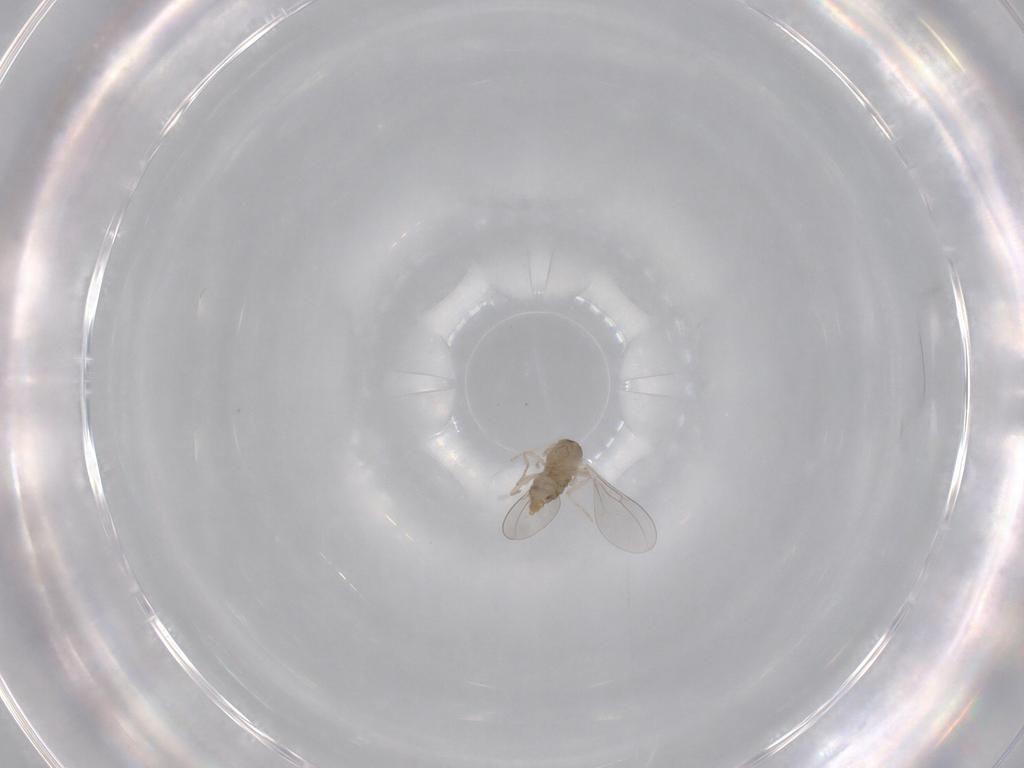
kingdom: Animalia
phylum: Arthropoda
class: Insecta
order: Diptera
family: Cecidomyiidae
